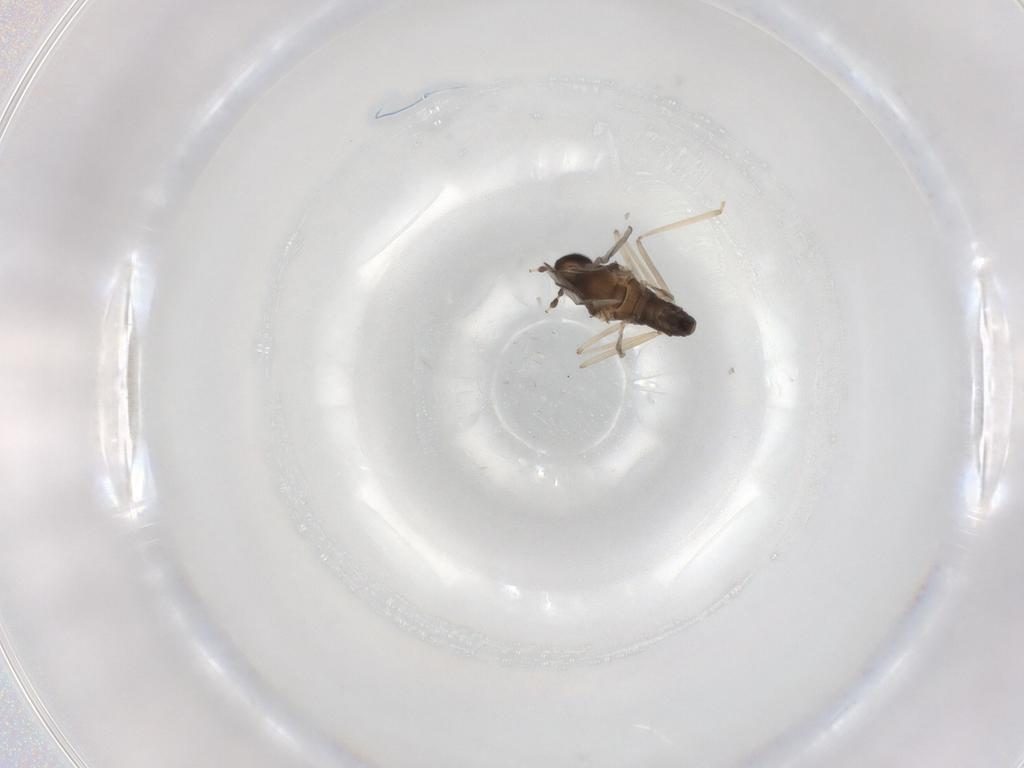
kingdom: Animalia
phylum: Arthropoda
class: Insecta
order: Diptera
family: Cecidomyiidae
